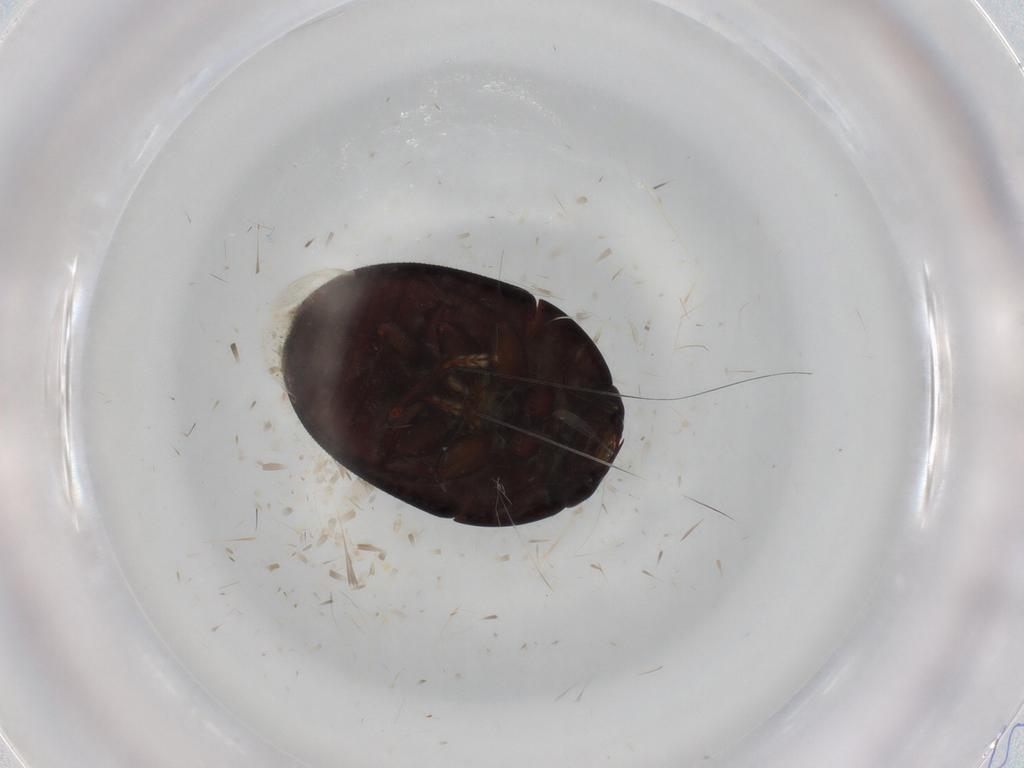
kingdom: Animalia
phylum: Arthropoda
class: Insecta
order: Coleoptera
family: Phalacridae
